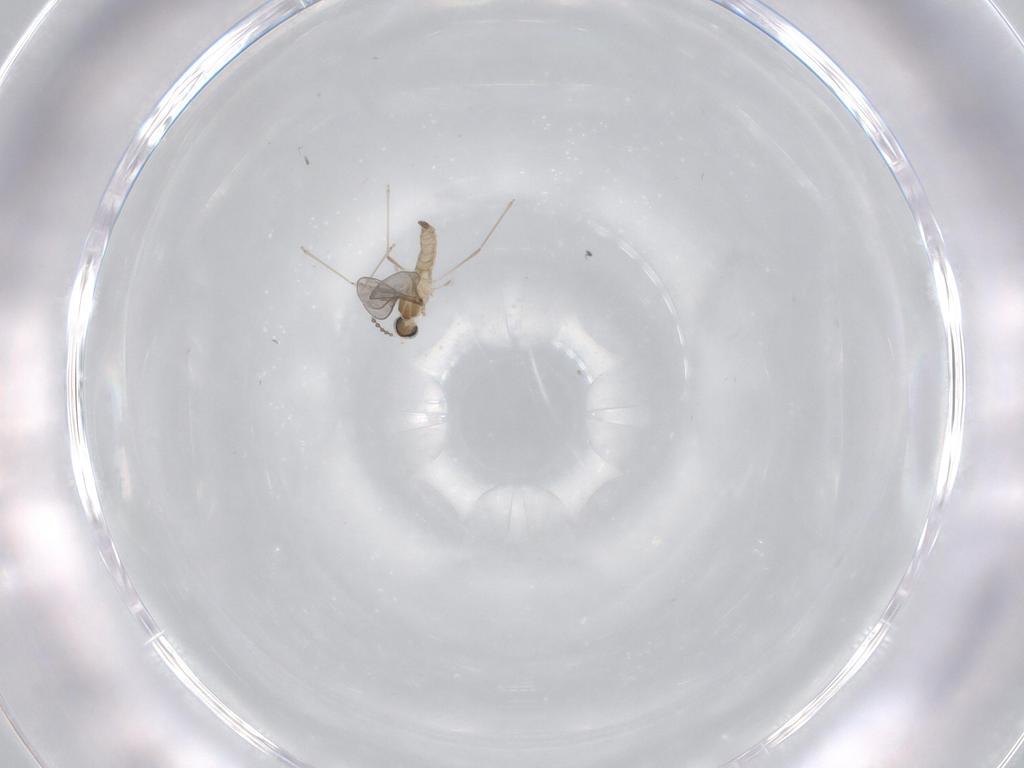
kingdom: Animalia
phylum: Arthropoda
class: Insecta
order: Diptera
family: Cecidomyiidae
